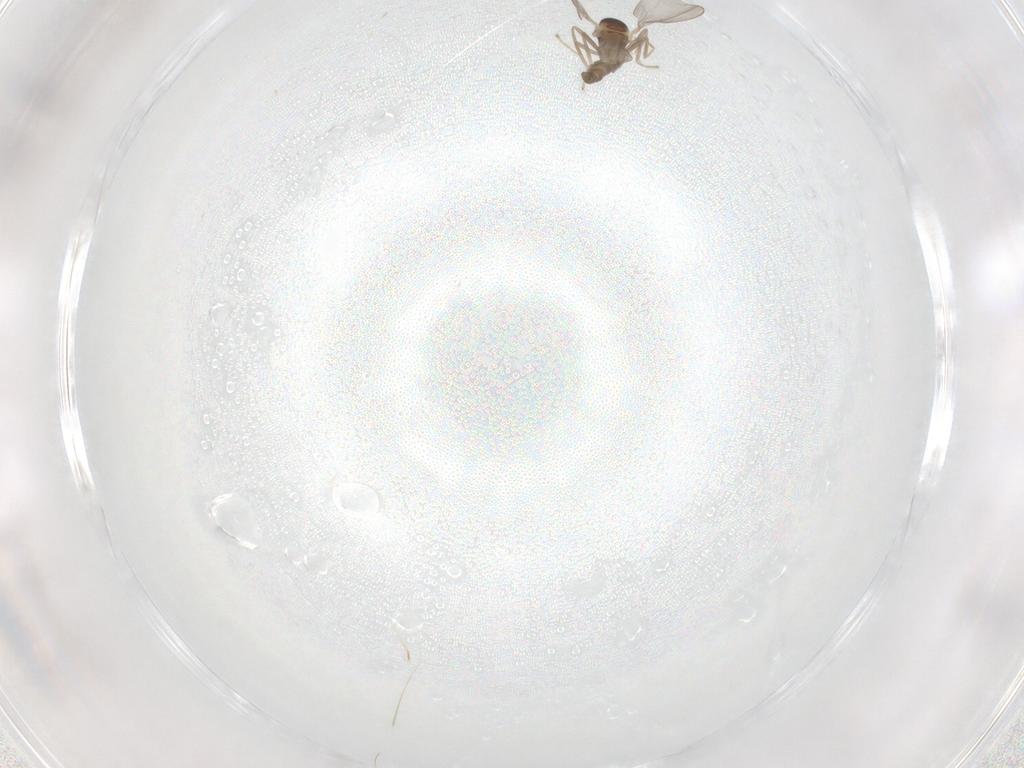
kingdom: Animalia
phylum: Arthropoda
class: Insecta
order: Diptera
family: Cecidomyiidae
